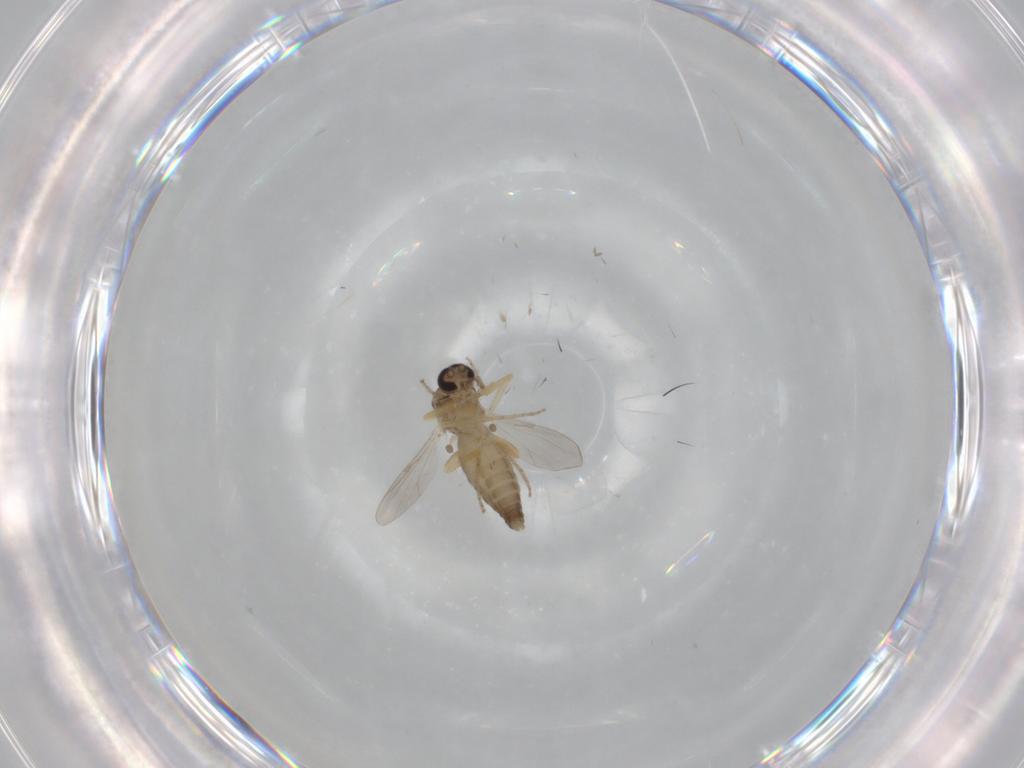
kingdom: Animalia
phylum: Arthropoda
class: Insecta
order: Diptera
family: Ceratopogonidae
